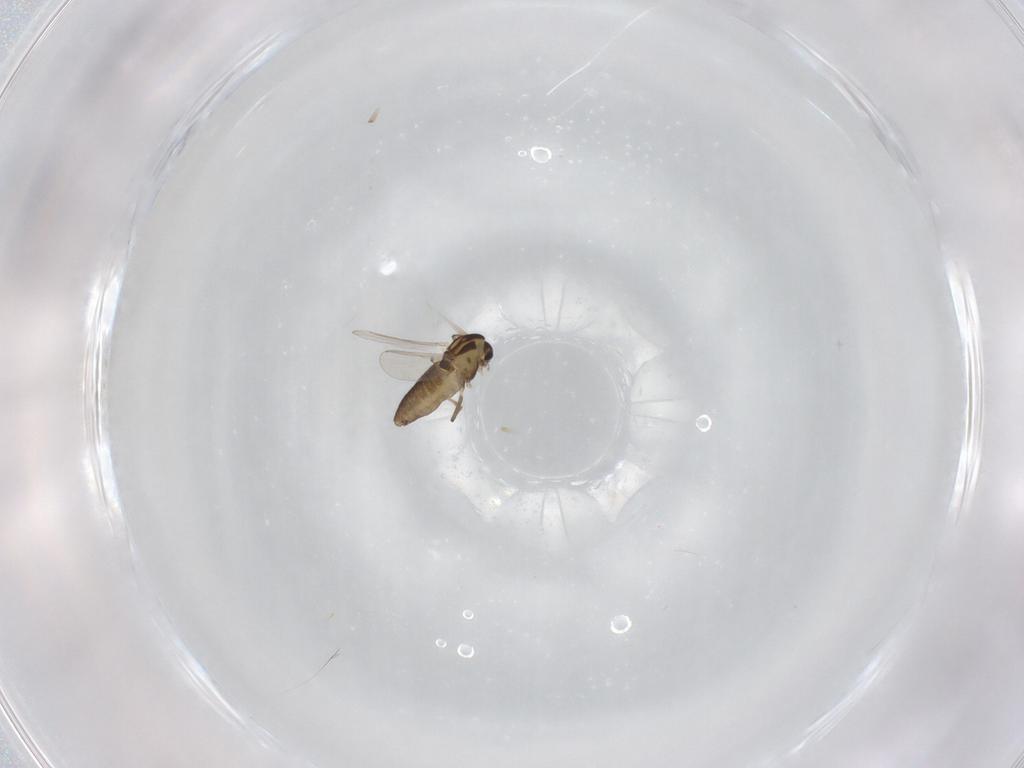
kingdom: Animalia
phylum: Arthropoda
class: Insecta
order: Diptera
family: Chironomidae
